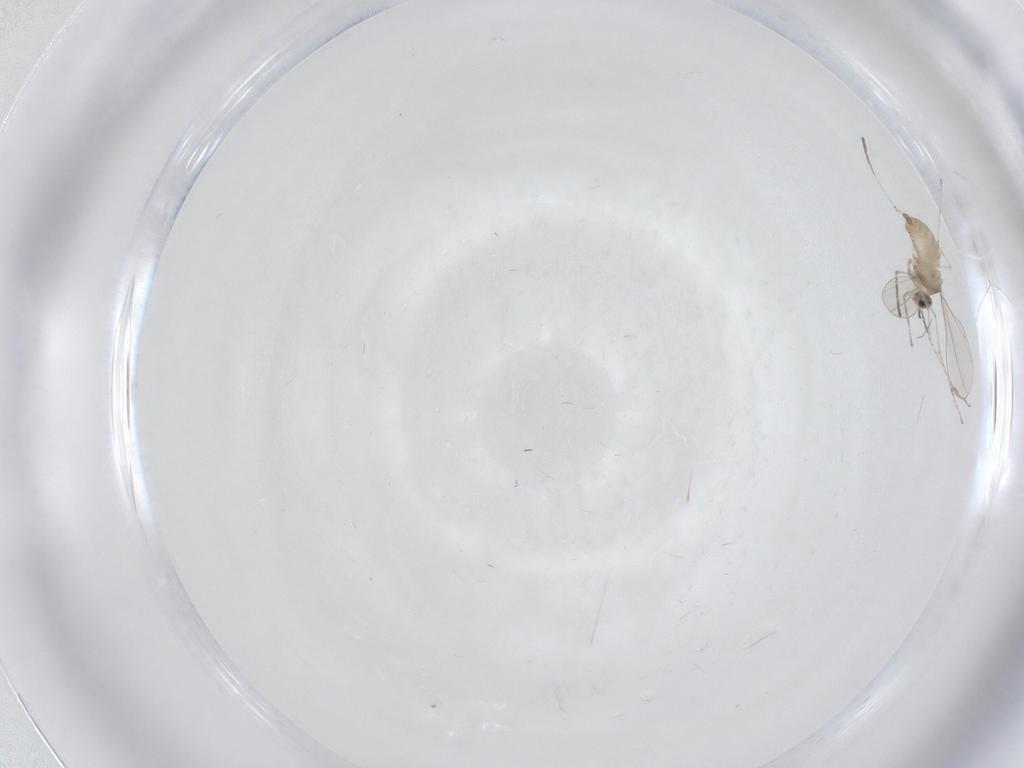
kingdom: Animalia
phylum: Arthropoda
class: Insecta
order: Diptera
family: Cecidomyiidae
